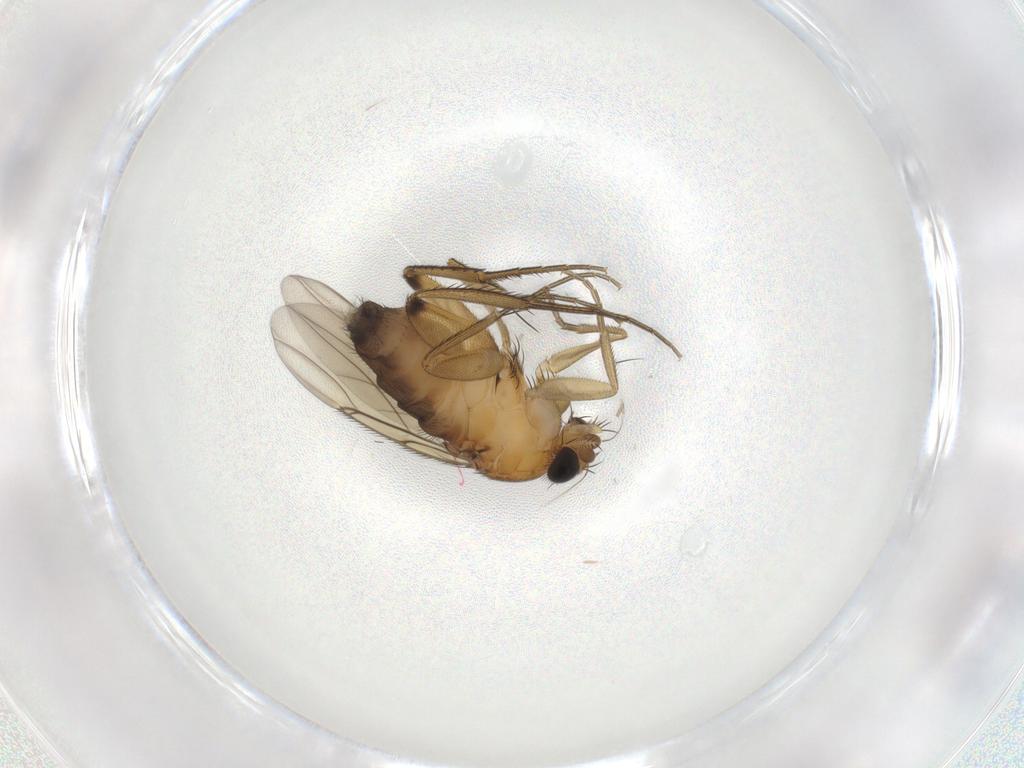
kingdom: Animalia
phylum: Arthropoda
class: Insecta
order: Diptera
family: Phoridae
